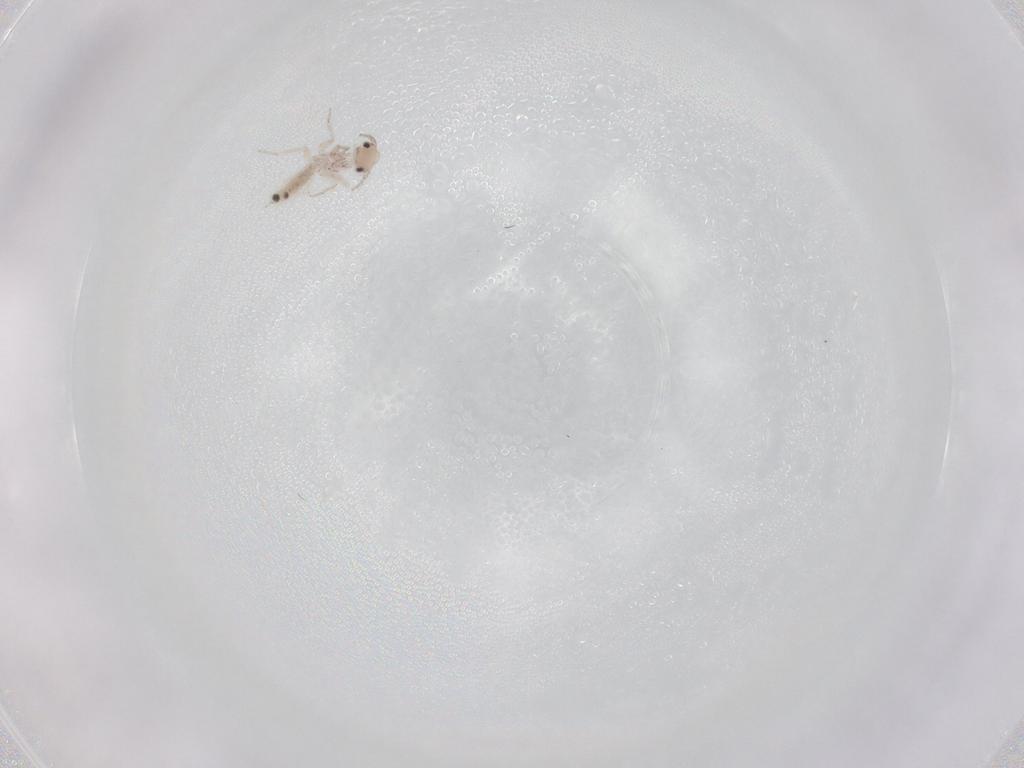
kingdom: Animalia
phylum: Arthropoda
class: Insecta
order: Psocodea
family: Lepidopsocidae
